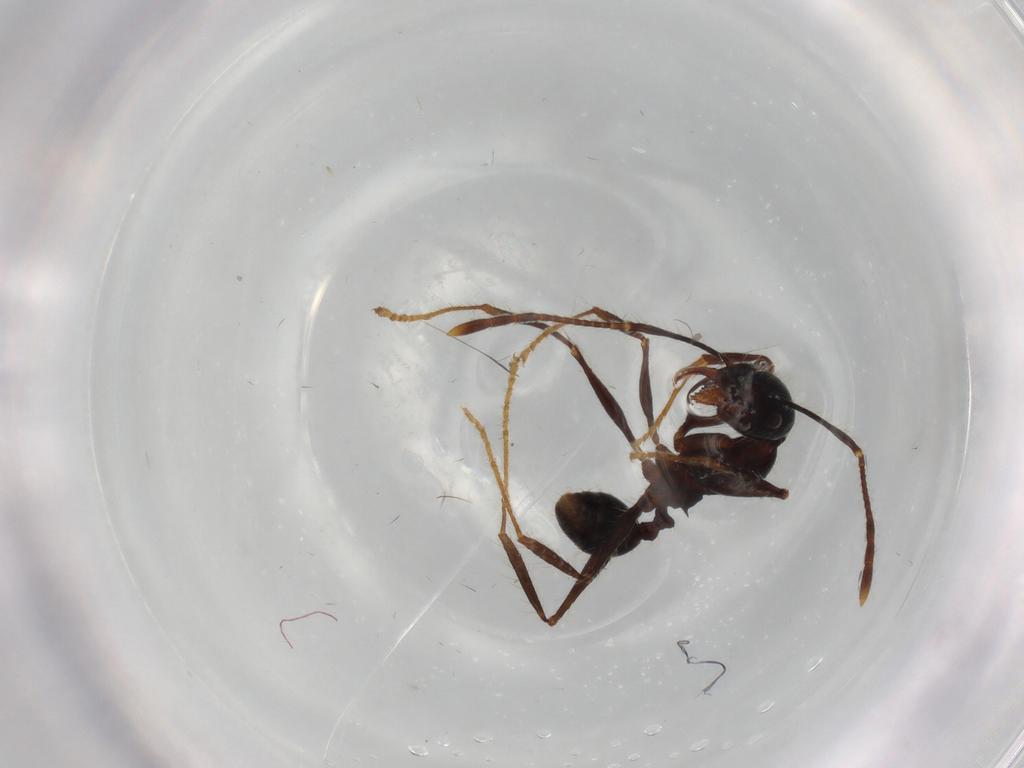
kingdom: Animalia
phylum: Arthropoda
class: Insecta
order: Hymenoptera
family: Formicidae
